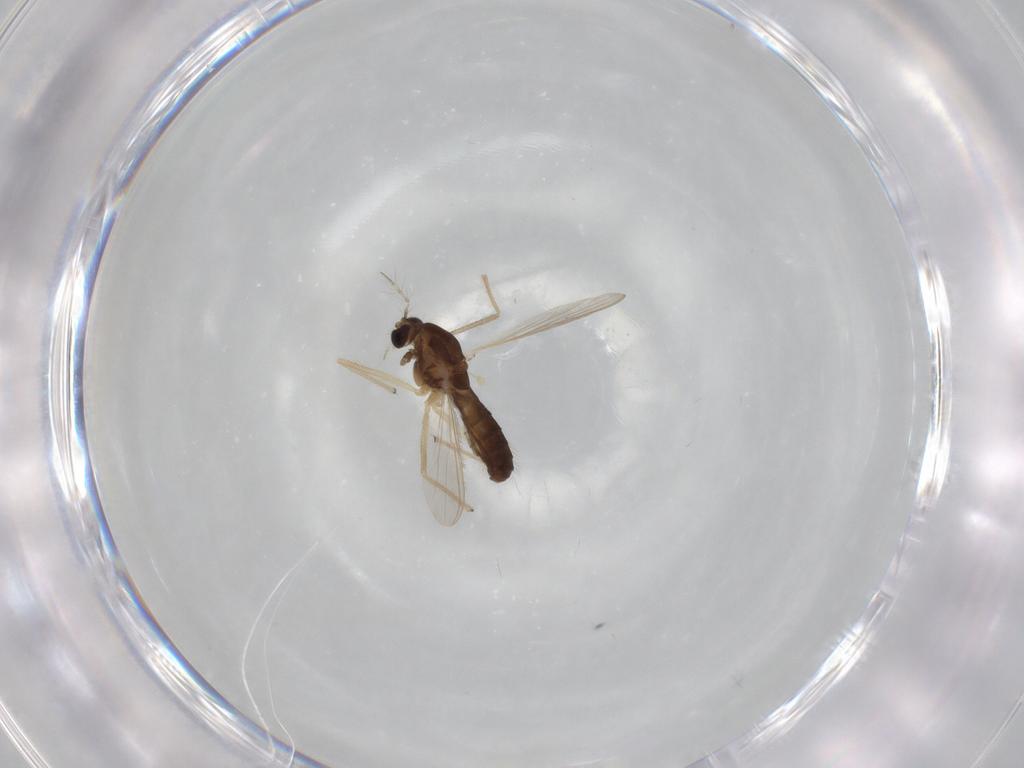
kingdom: Animalia
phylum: Arthropoda
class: Insecta
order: Diptera
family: Chironomidae
